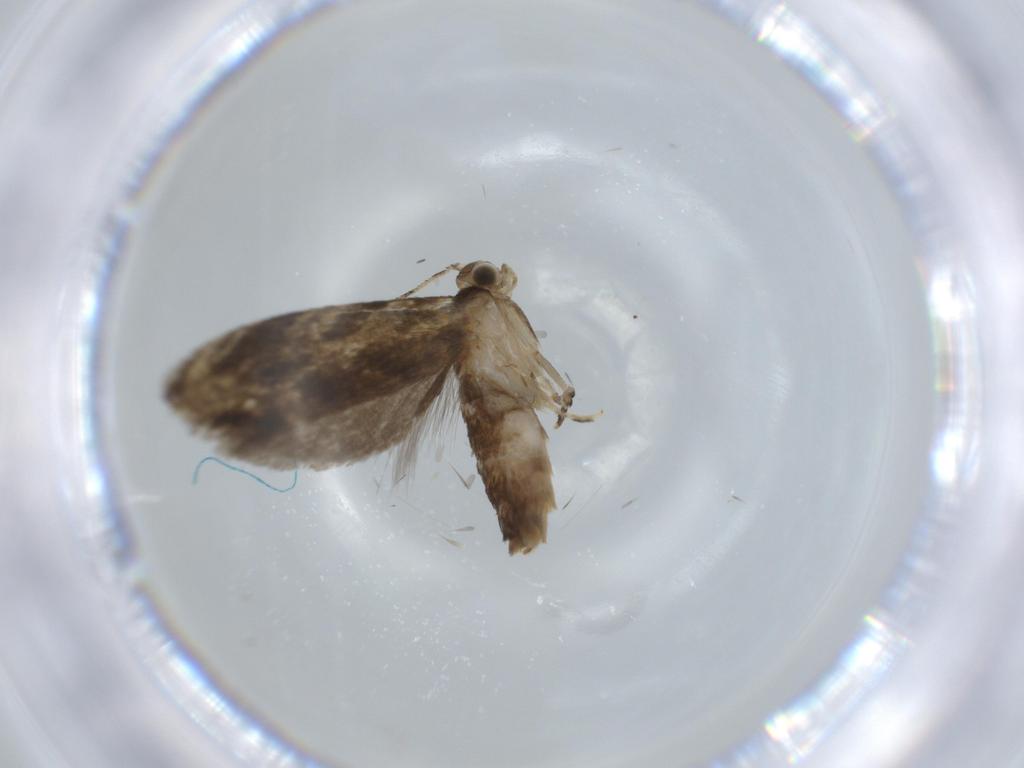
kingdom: Animalia
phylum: Arthropoda
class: Insecta
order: Lepidoptera
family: Tineidae
